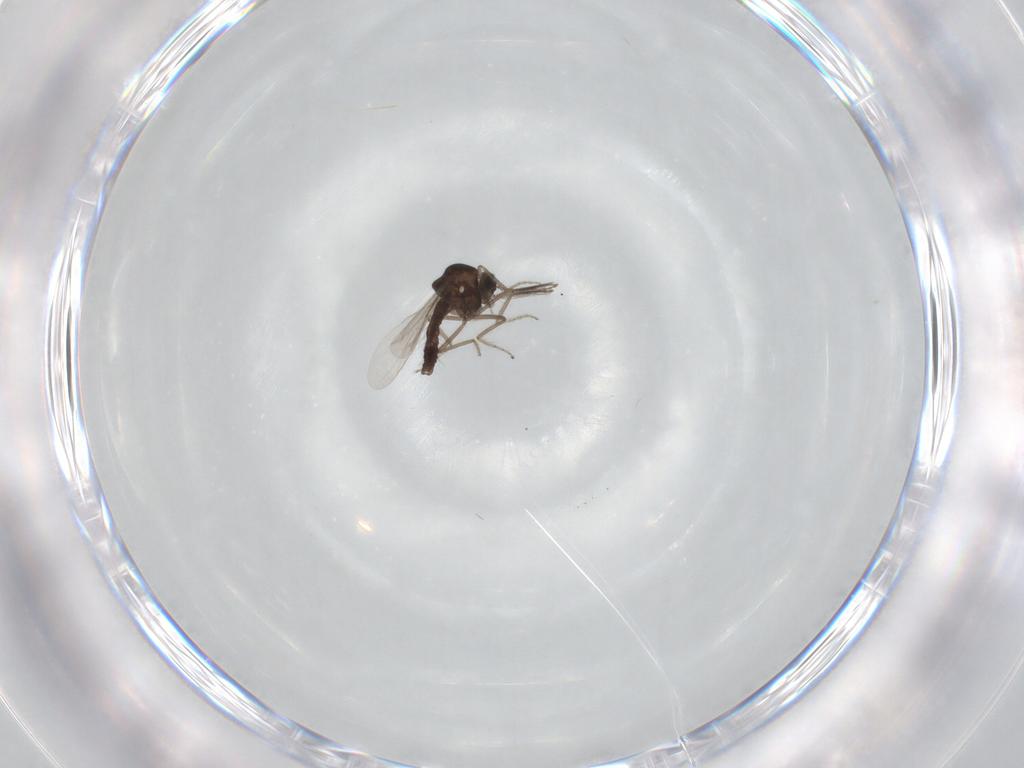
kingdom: Animalia
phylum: Arthropoda
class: Insecta
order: Diptera
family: Ceratopogonidae
